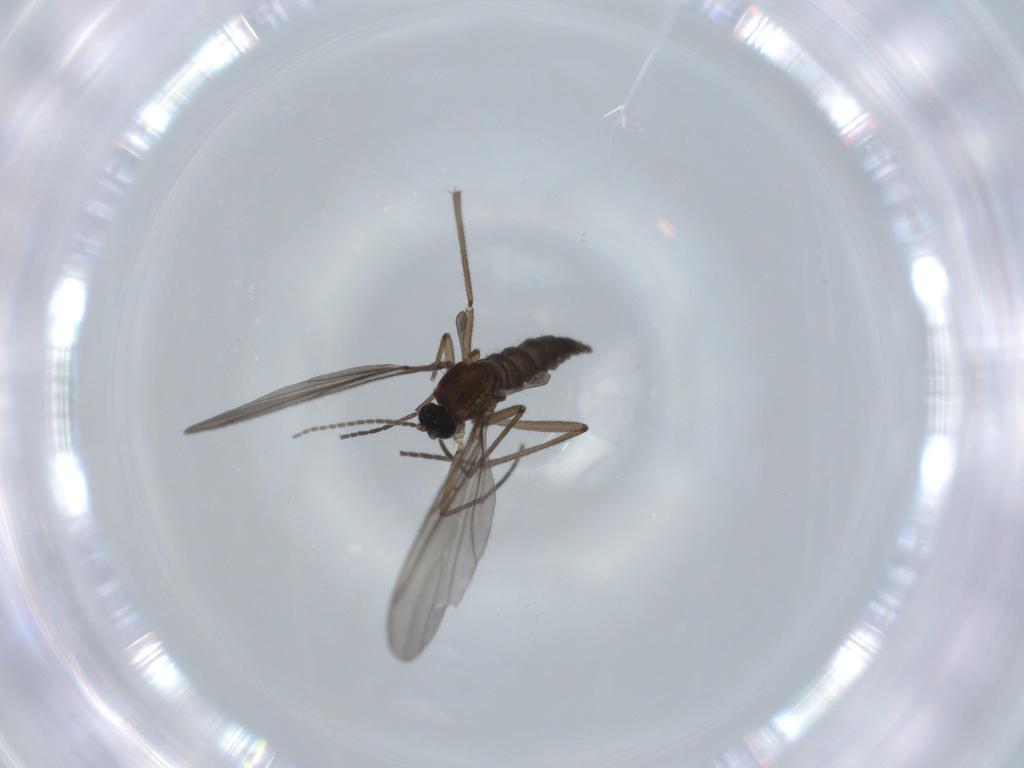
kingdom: Animalia
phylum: Arthropoda
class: Insecta
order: Diptera
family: Sciaridae
